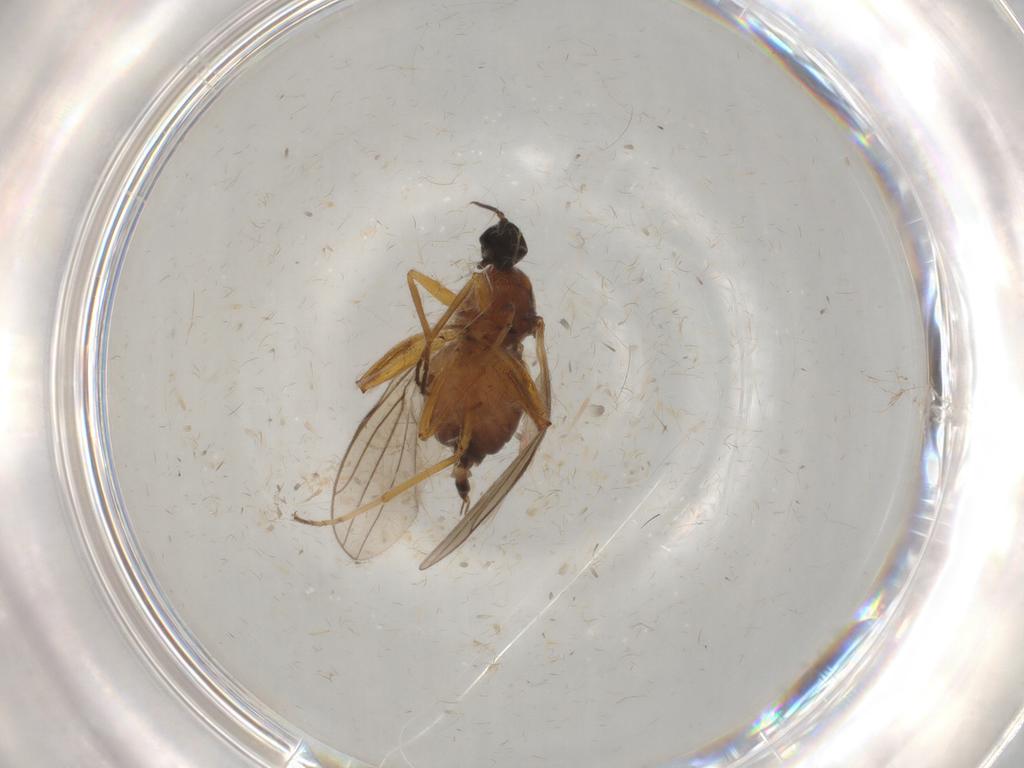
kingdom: Animalia
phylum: Arthropoda
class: Insecta
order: Diptera
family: Hybotidae
